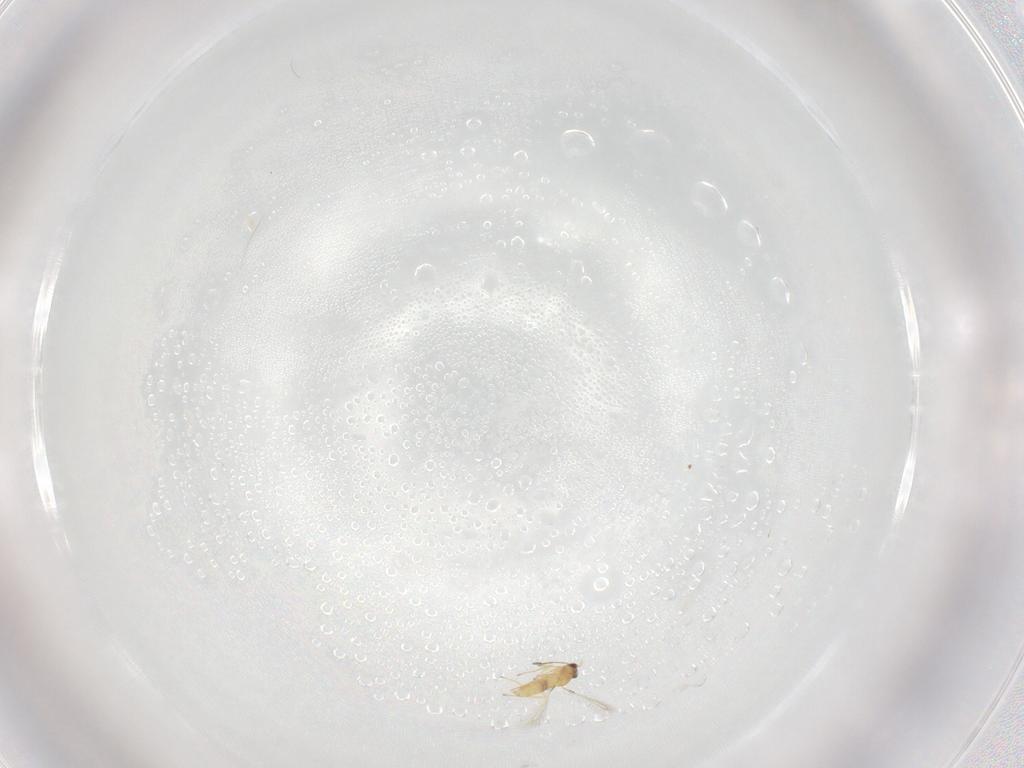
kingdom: Animalia
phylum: Arthropoda
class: Insecta
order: Hymenoptera
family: Mymaridae
